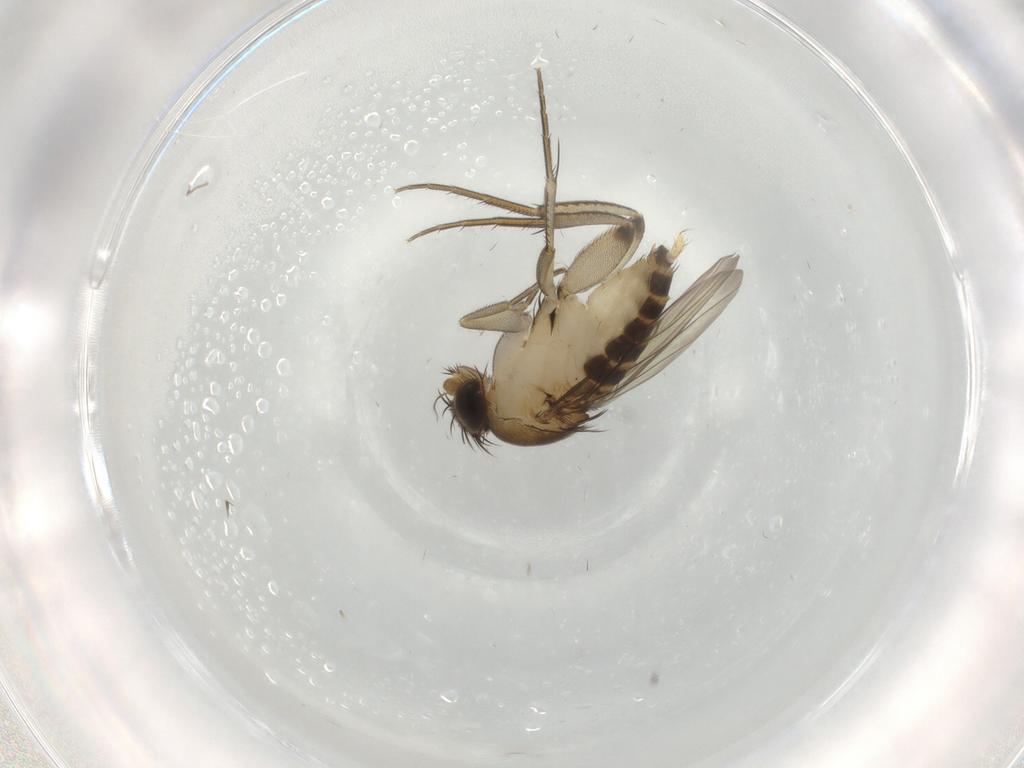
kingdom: Animalia
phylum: Arthropoda
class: Insecta
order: Diptera
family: Phoridae
